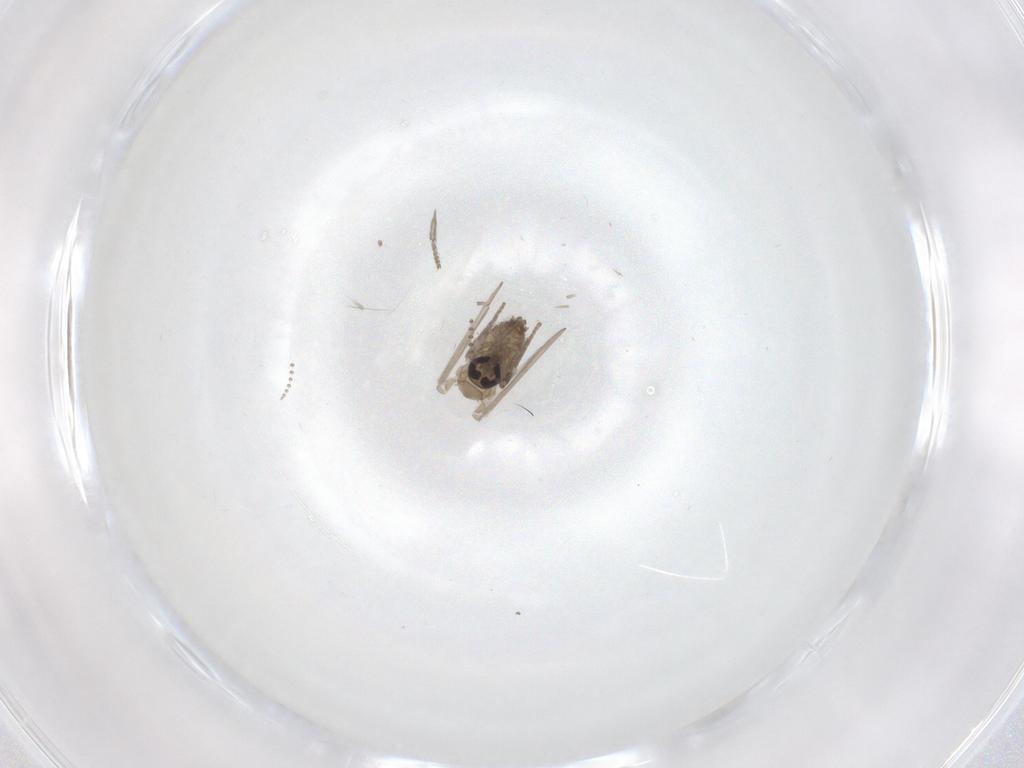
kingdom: Animalia
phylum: Arthropoda
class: Insecta
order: Diptera
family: Psychodidae
